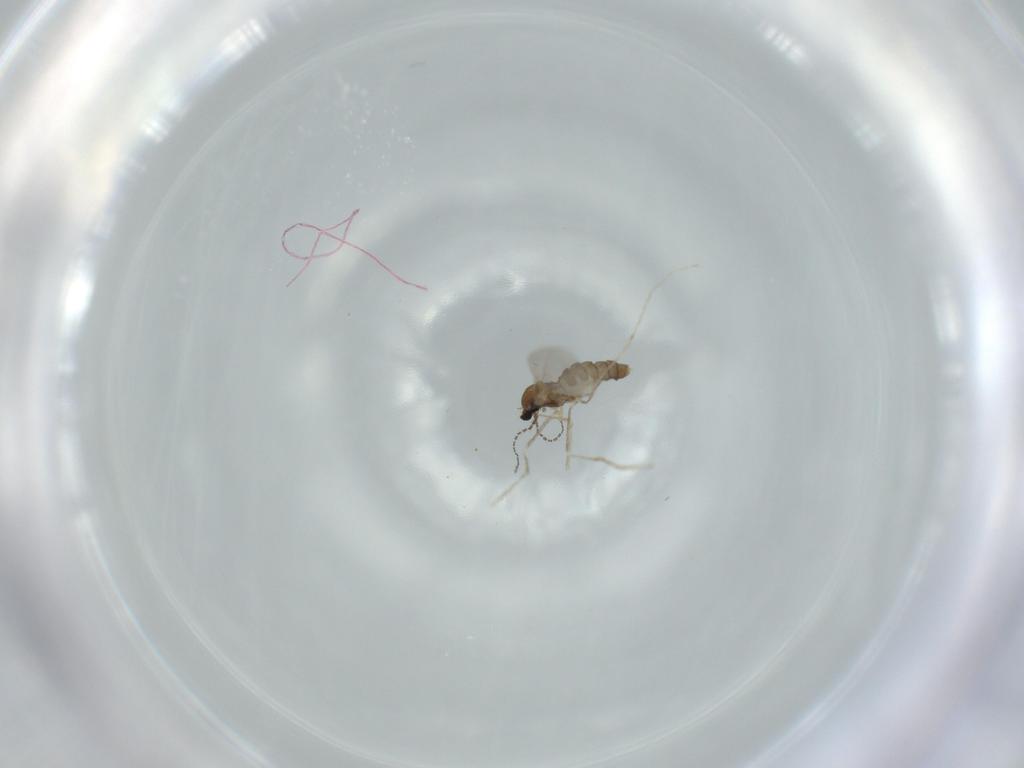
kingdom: Animalia
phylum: Arthropoda
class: Insecta
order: Diptera
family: Cecidomyiidae
